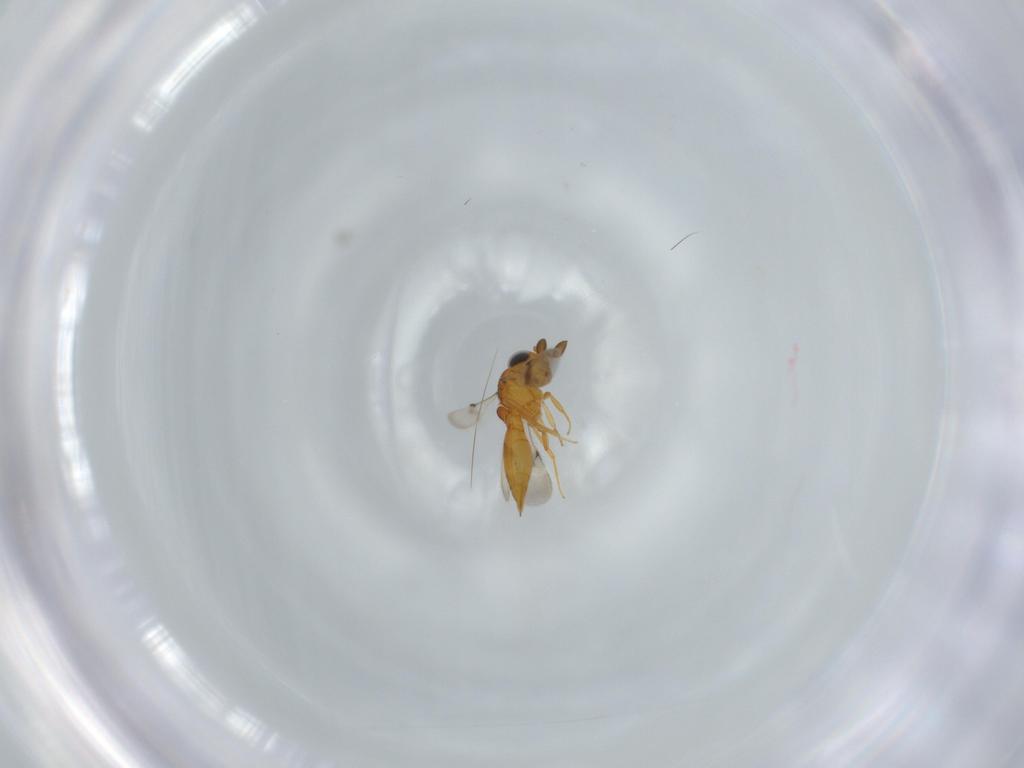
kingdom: Animalia
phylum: Arthropoda
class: Insecta
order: Hymenoptera
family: Scelionidae
